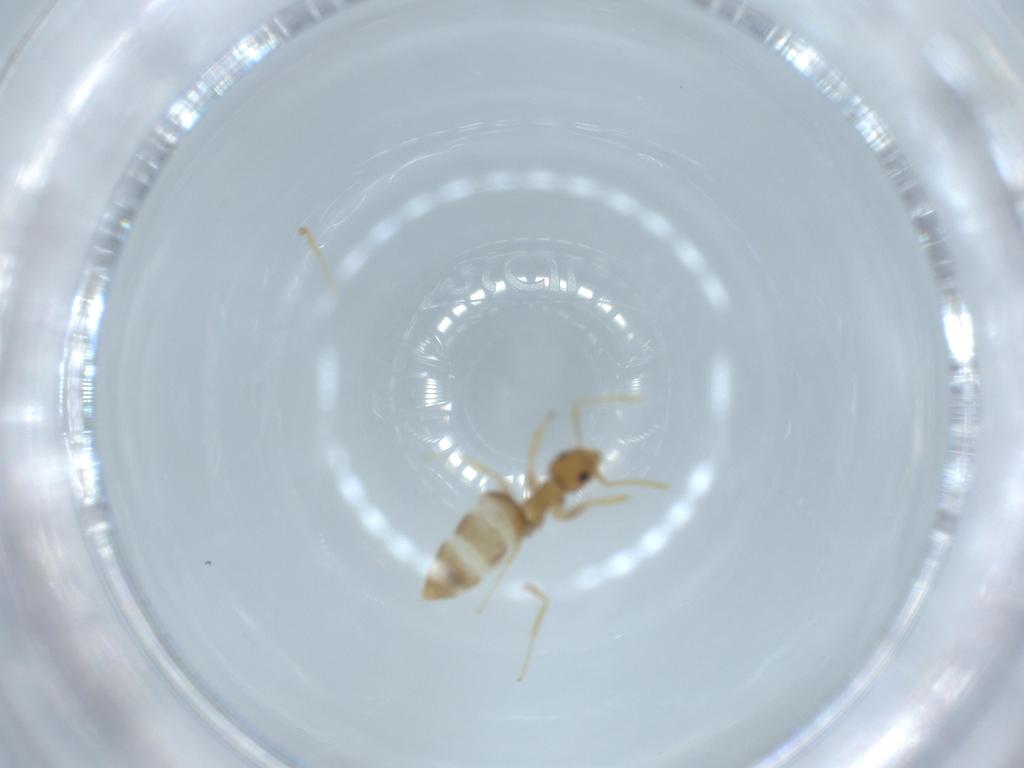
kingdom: Animalia
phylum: Arthropoda
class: Insecta
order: Hymenoptera
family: Formicidae
